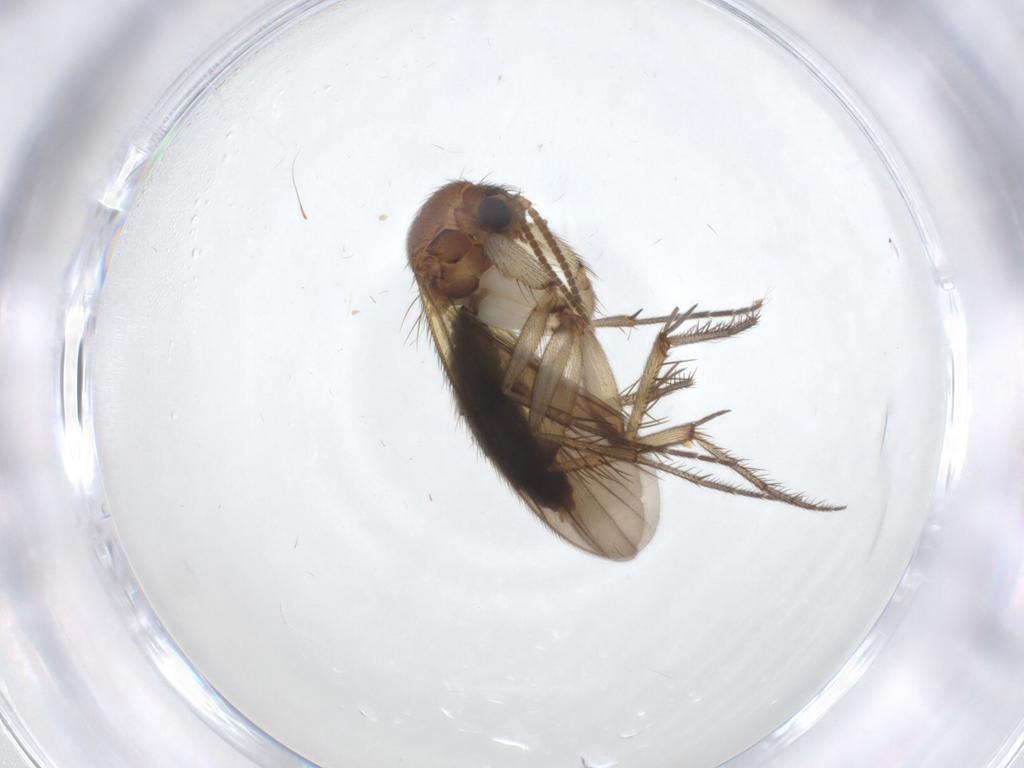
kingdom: Animalia
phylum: Arthropoda
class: Insecta
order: Diptera
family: Mycetophilidae
